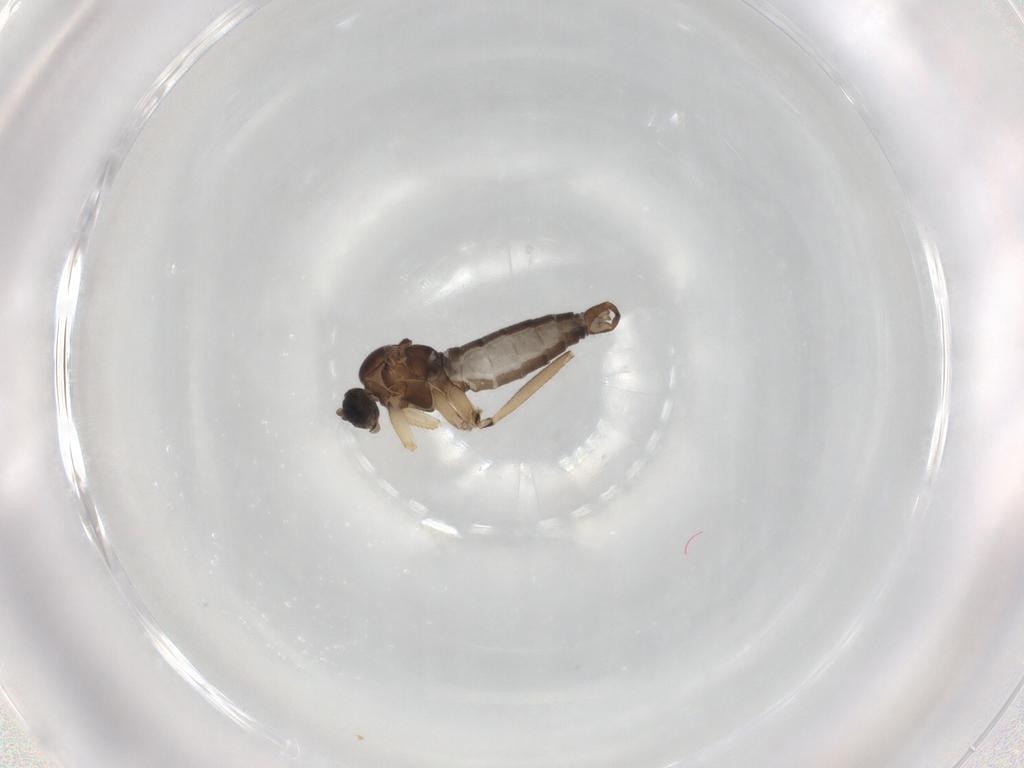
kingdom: Animalia
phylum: Arthropoda
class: Insecta
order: Diptera
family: Sciaridae
